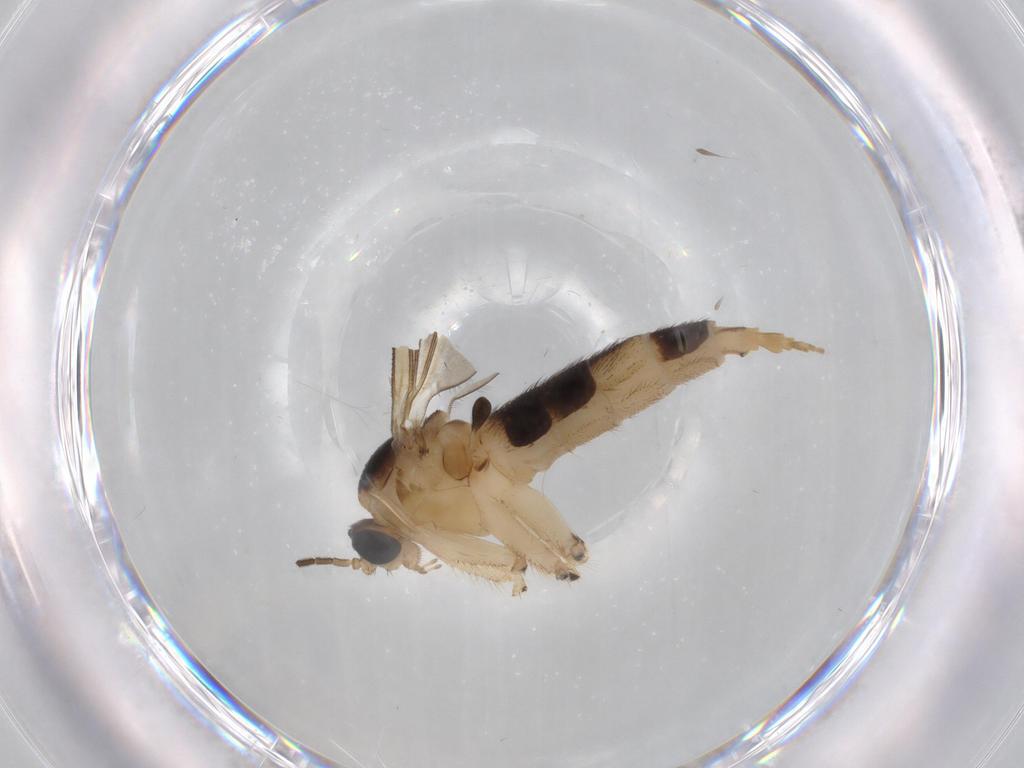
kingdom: Animalia
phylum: Arthropoda
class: Insecta
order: Diptera
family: Sciaridae
